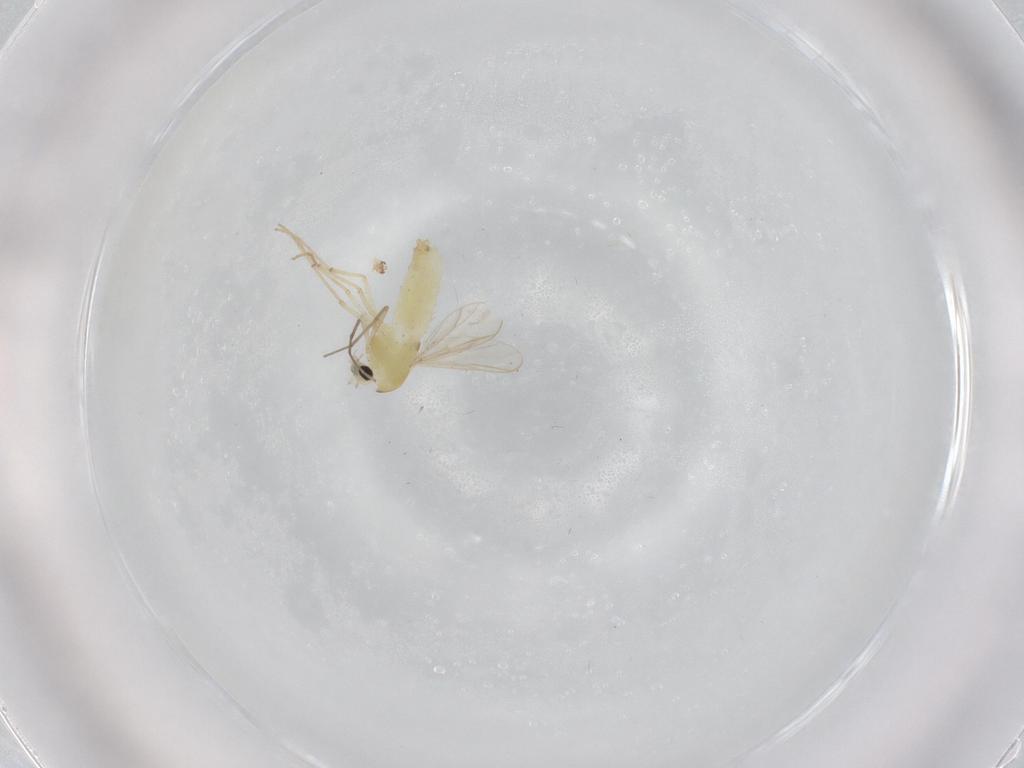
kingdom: Animalia
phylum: Arthropoda
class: Insecta
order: Diptera
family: Chironomidae
